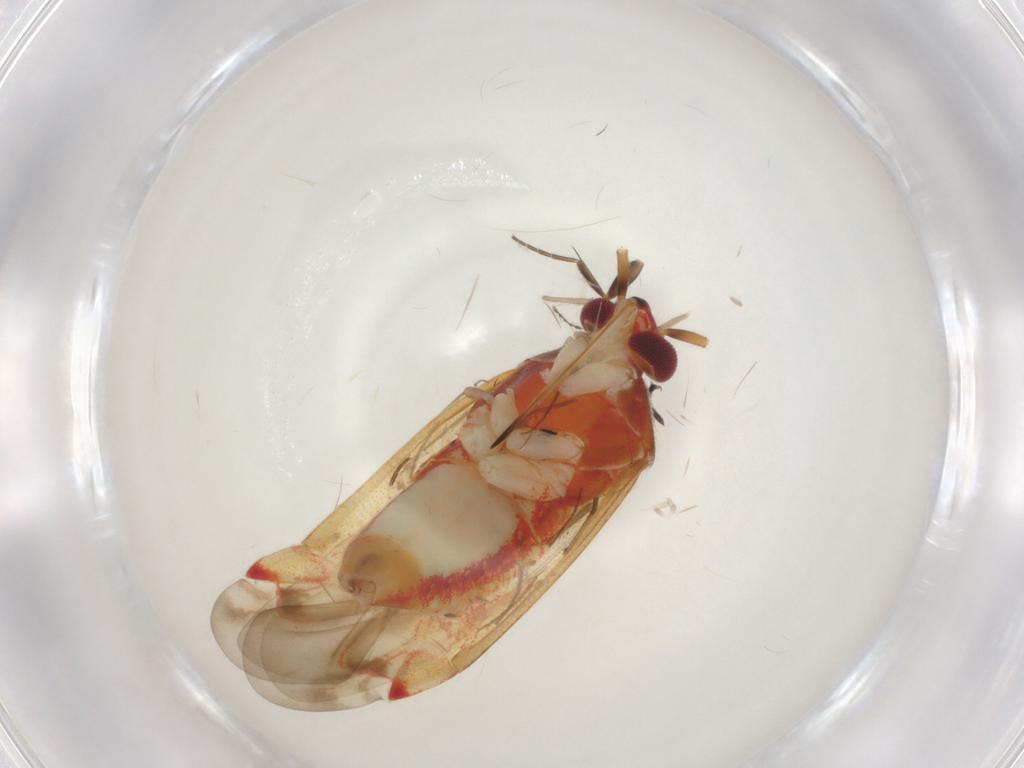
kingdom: Animalia
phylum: Arthropoda
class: Insecta
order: Hemiptera
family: Miridae
